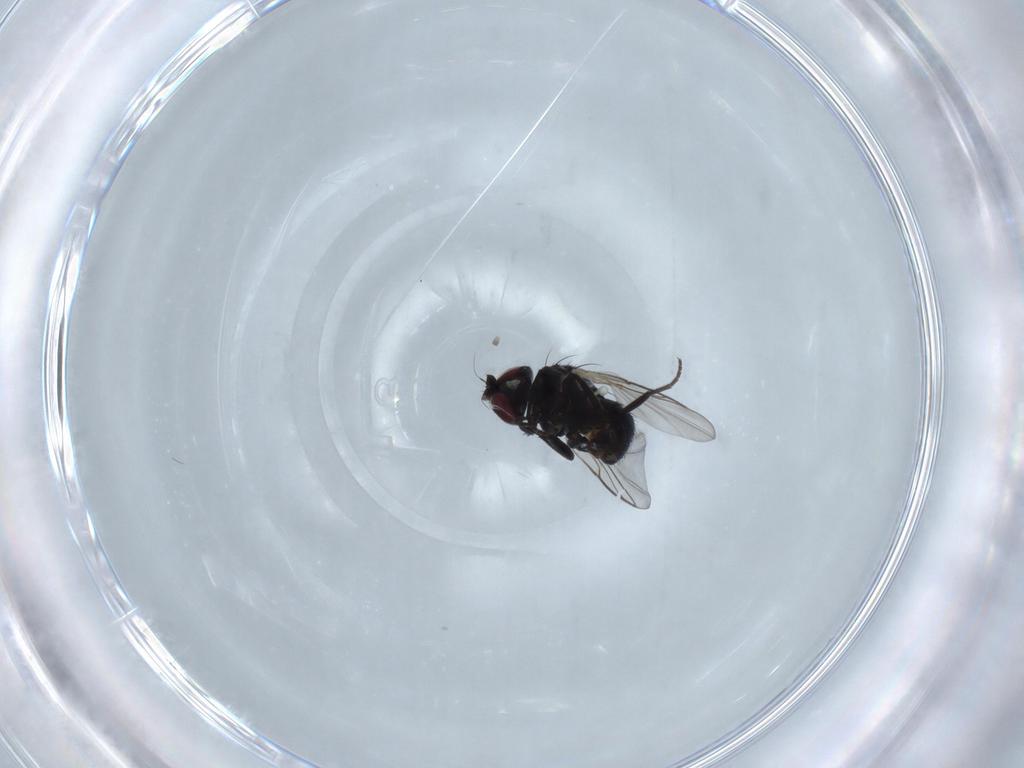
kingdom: Animalia
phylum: Arthropoda
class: Insecta
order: Diptera
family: Agromyzidae
